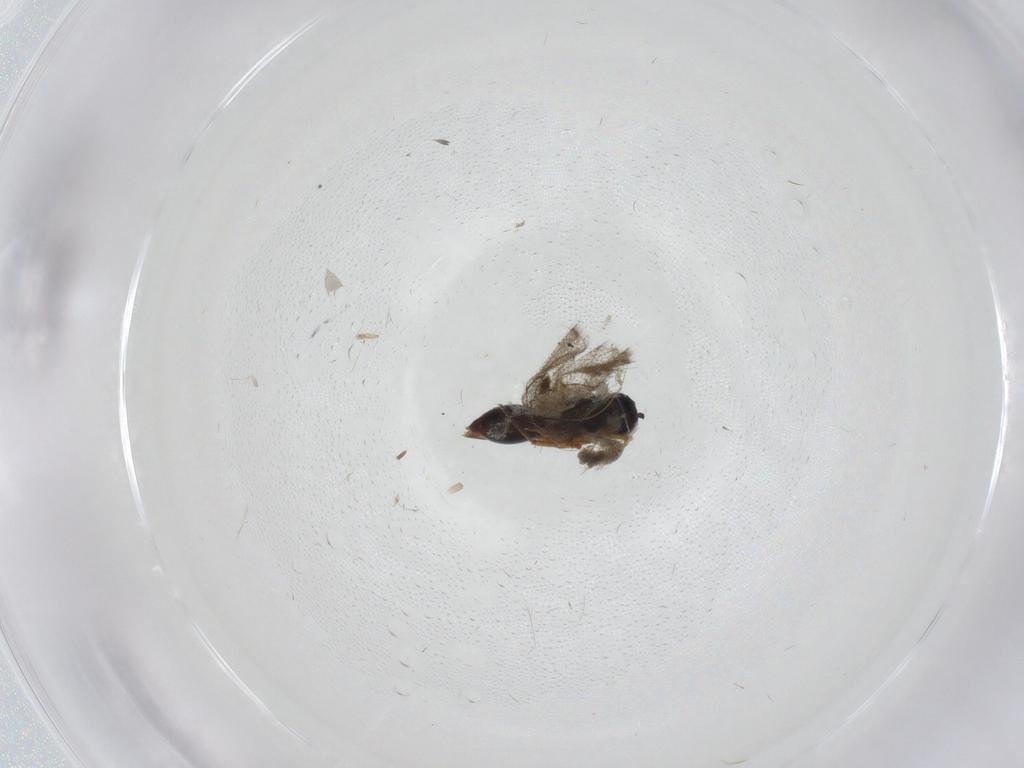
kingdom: Animalia
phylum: Arthropoda
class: Insecta
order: Hymenoptera
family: Figitidae
